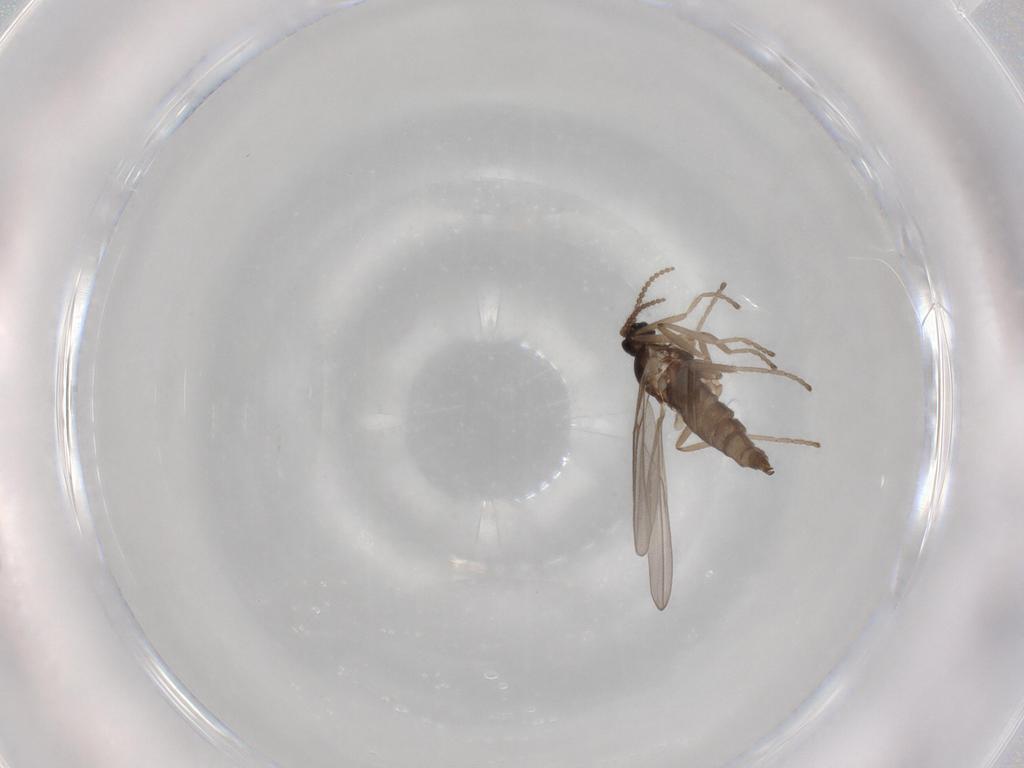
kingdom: Animalia
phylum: Arthropoda
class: Insecta
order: Diptera
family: Cecidomyiidae
